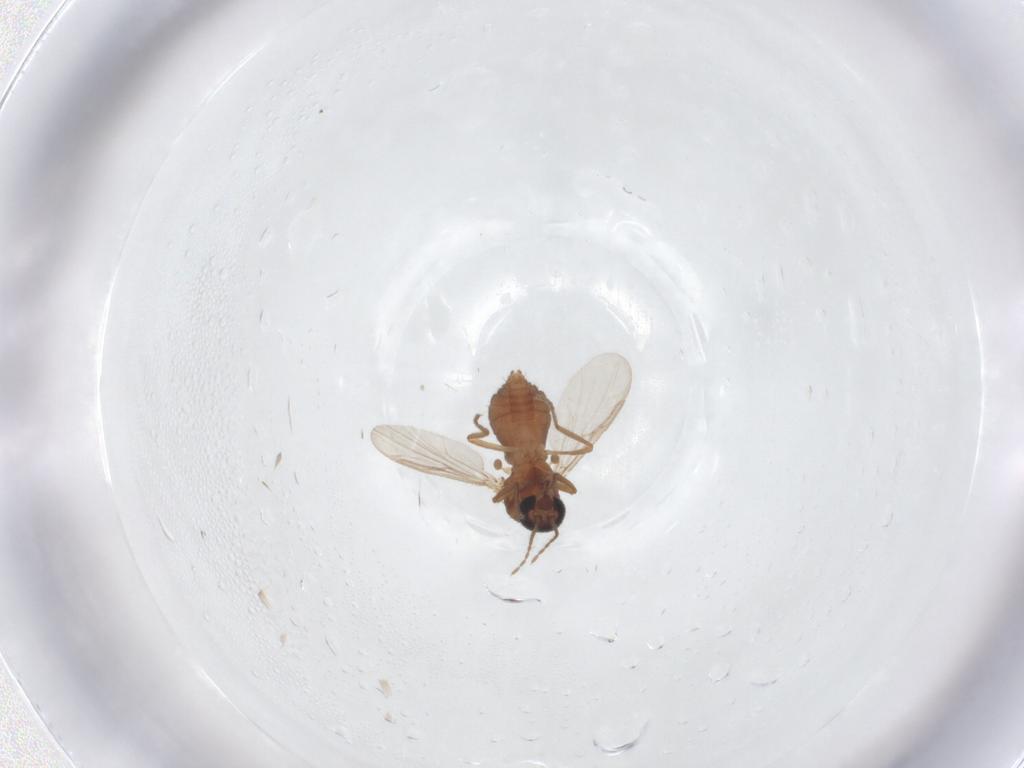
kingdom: Animalia
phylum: Arthropoda
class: Insecta
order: Diptera
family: Ceratopogonidae
